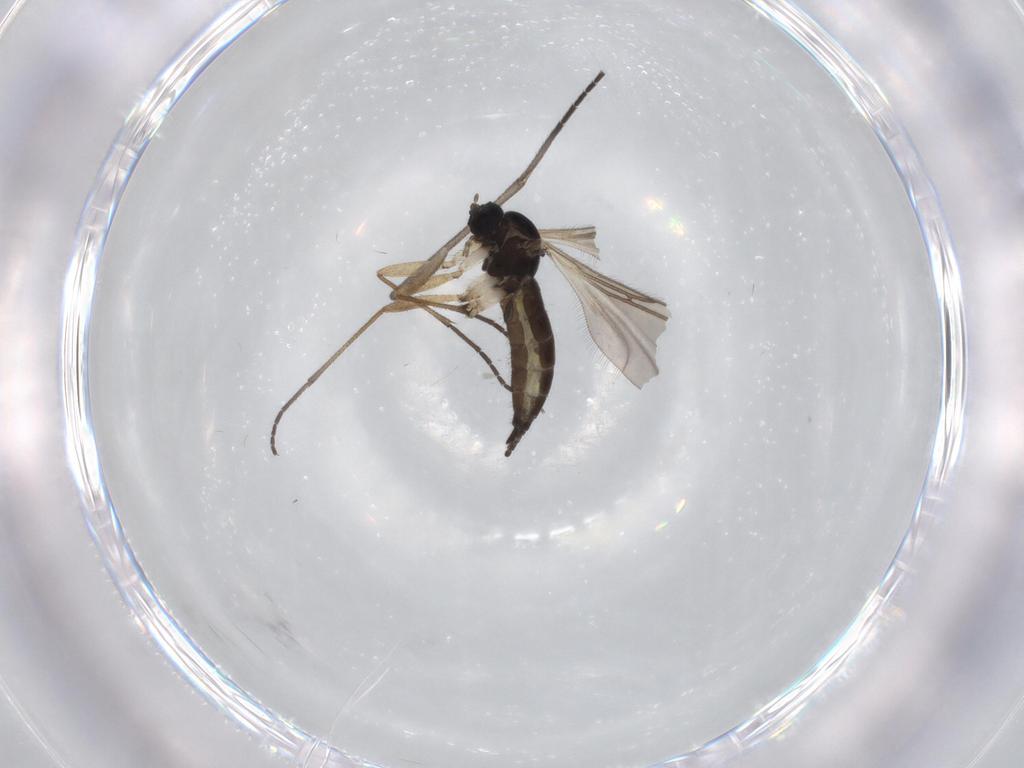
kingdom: Animalia
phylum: Arthropoda
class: Insecta
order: Diptera
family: Sciaridae
